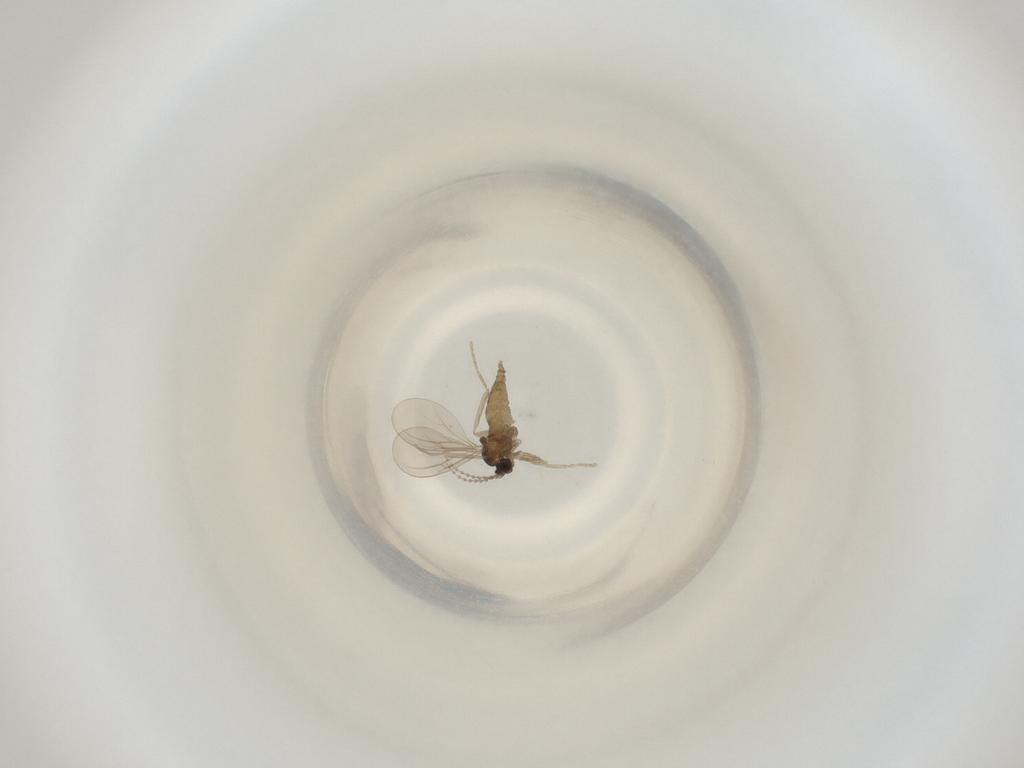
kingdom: Animalia
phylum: Arthropoda
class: Insecta
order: Diptera
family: Cecidomyiidae
